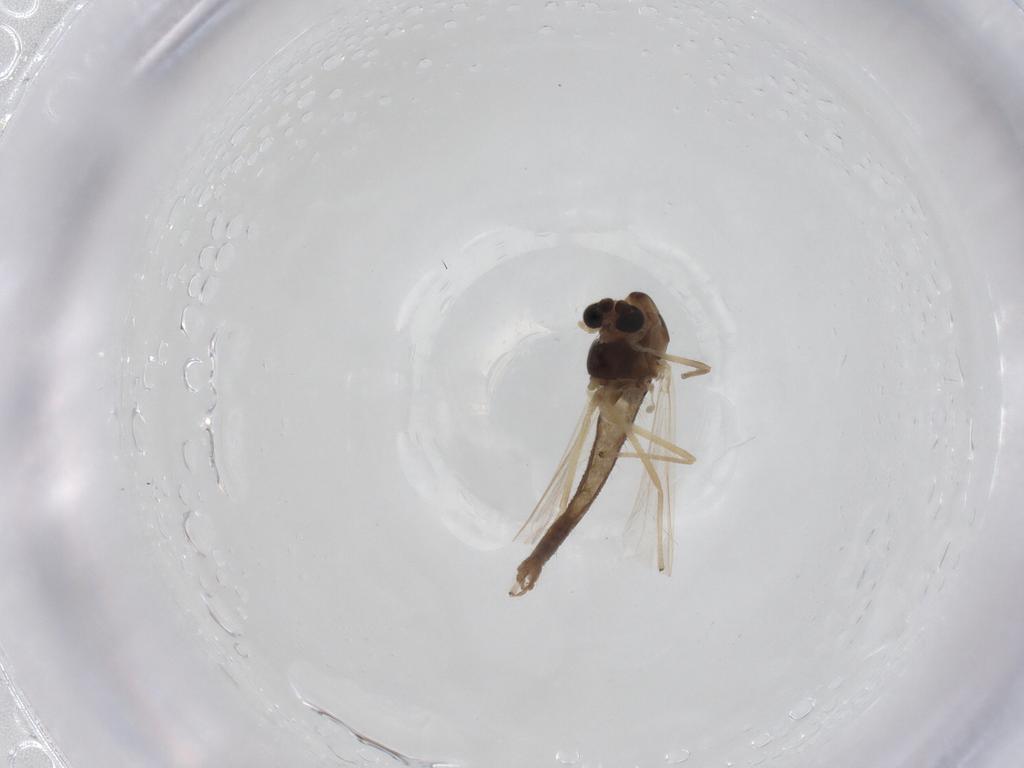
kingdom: Animalia
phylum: Arthropoda
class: Insecta
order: Diptera
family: Chironomidae
